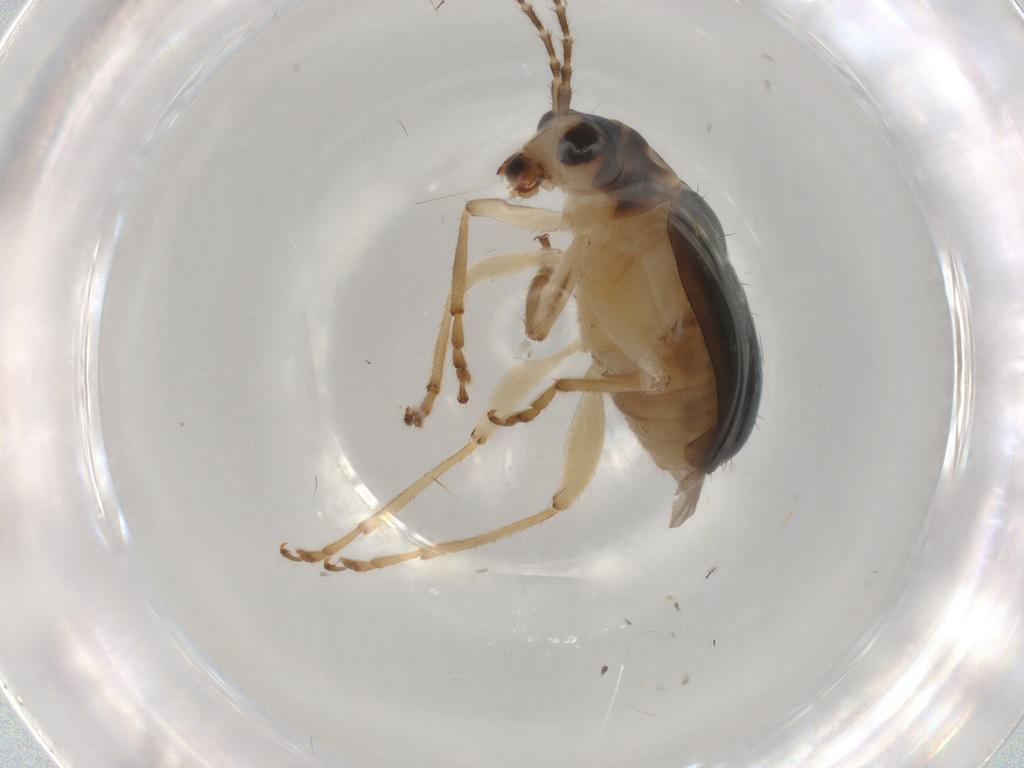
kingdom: Animalia
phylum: Arthropoda
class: Insecta
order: Coleoptera
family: Chrysomelidae
